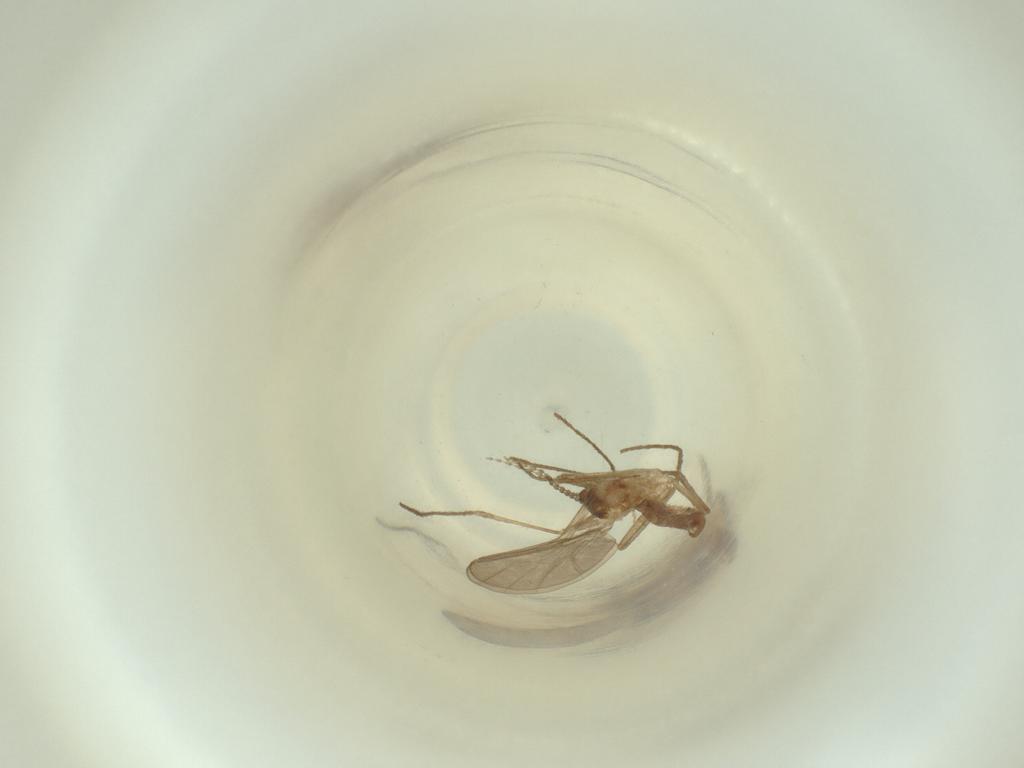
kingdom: Animalia
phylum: Arthropoda
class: Insecta
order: Diptera
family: Cecidomyiidae
